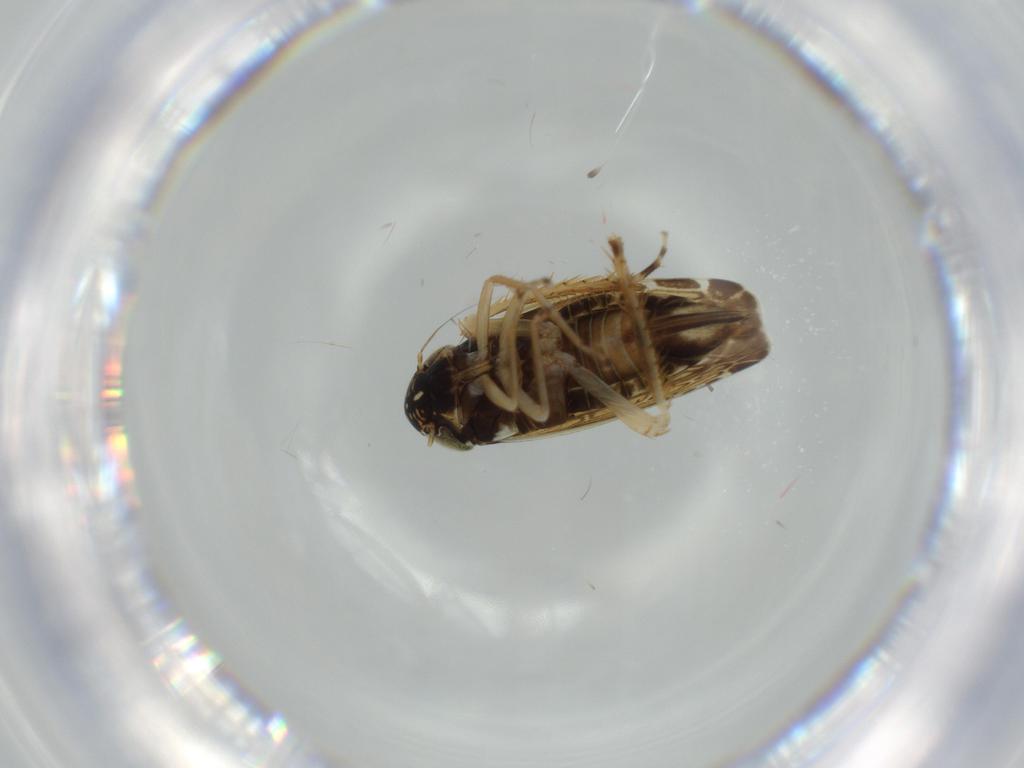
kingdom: Animalia
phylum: Arthropoda
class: Insecta
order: Hemiptera
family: Cicadellidae
